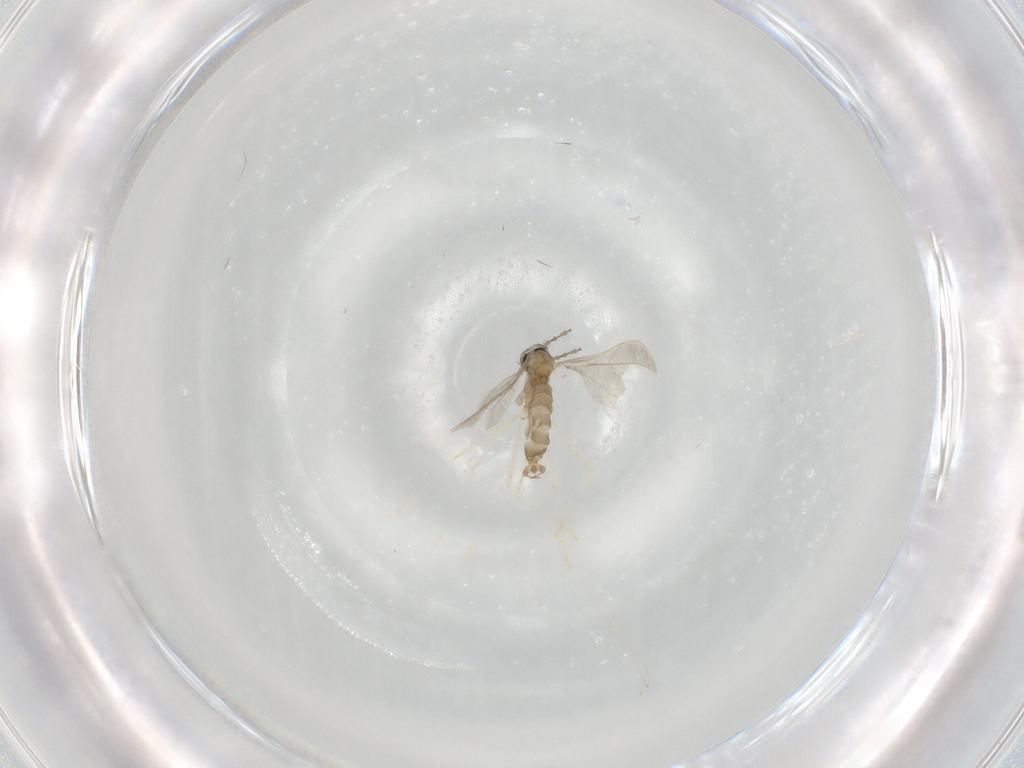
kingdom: Animalia
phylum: Arthropoda
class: Insecta
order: Diptera
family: Cecidomyiidae
